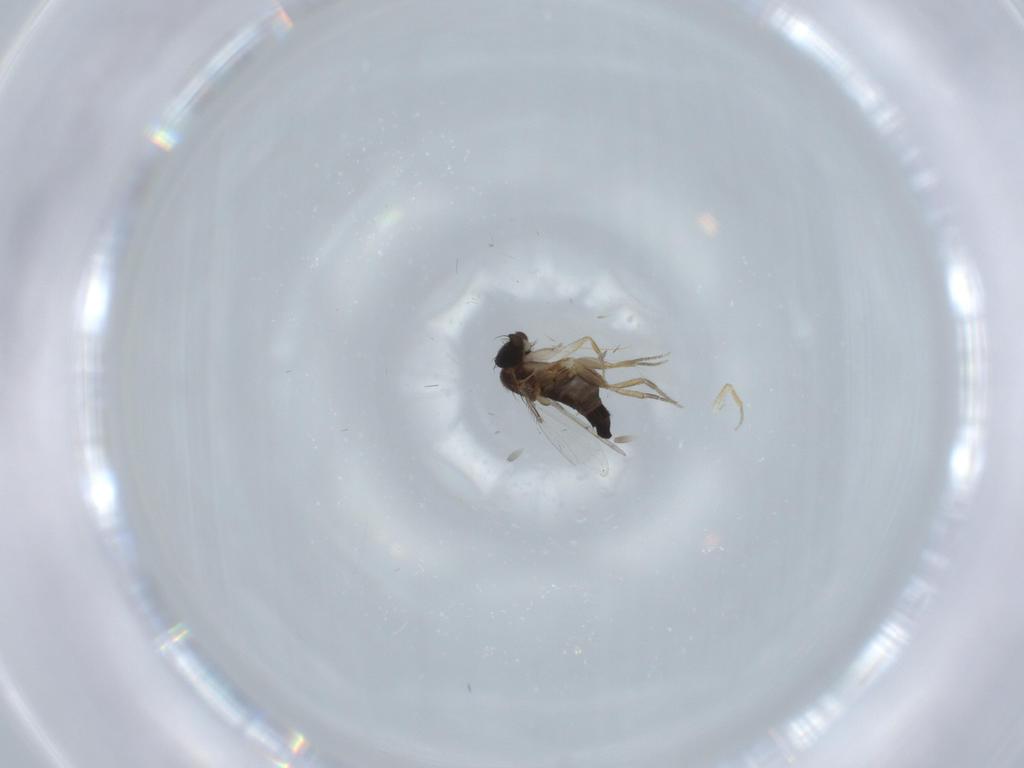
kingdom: Animalia
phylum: Arthropoda
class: Insecta
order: Diptera
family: Phoridae
